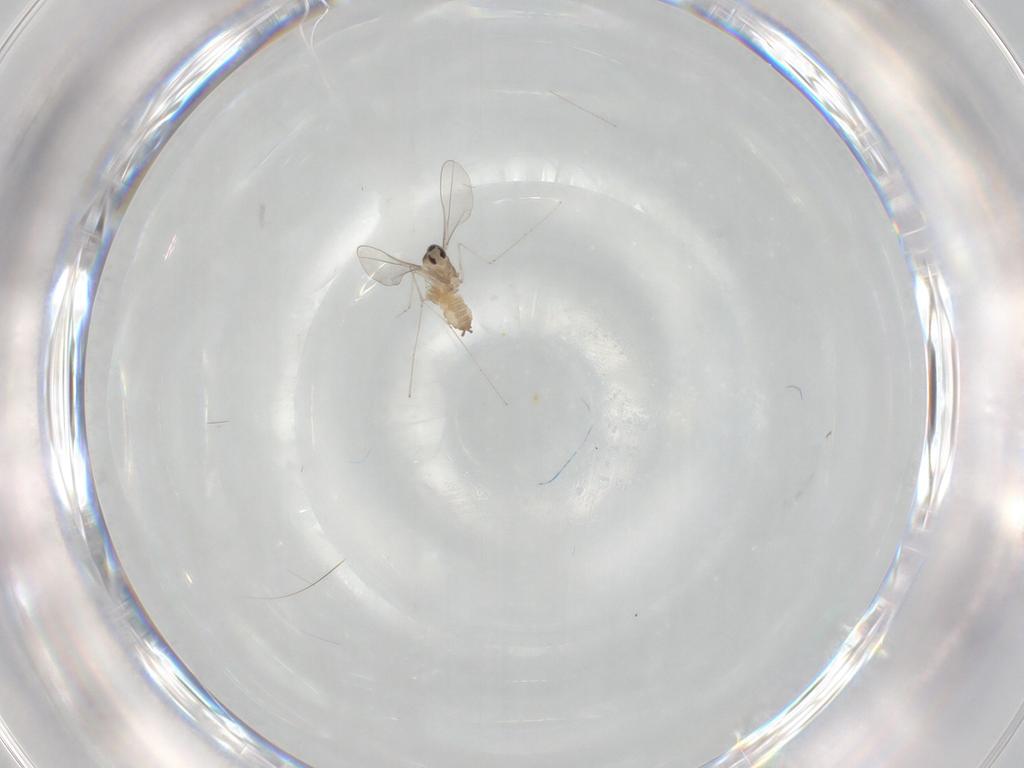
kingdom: Animalia
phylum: Arthropoda
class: Insecta
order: Diptera
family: Cecidomyiidae
